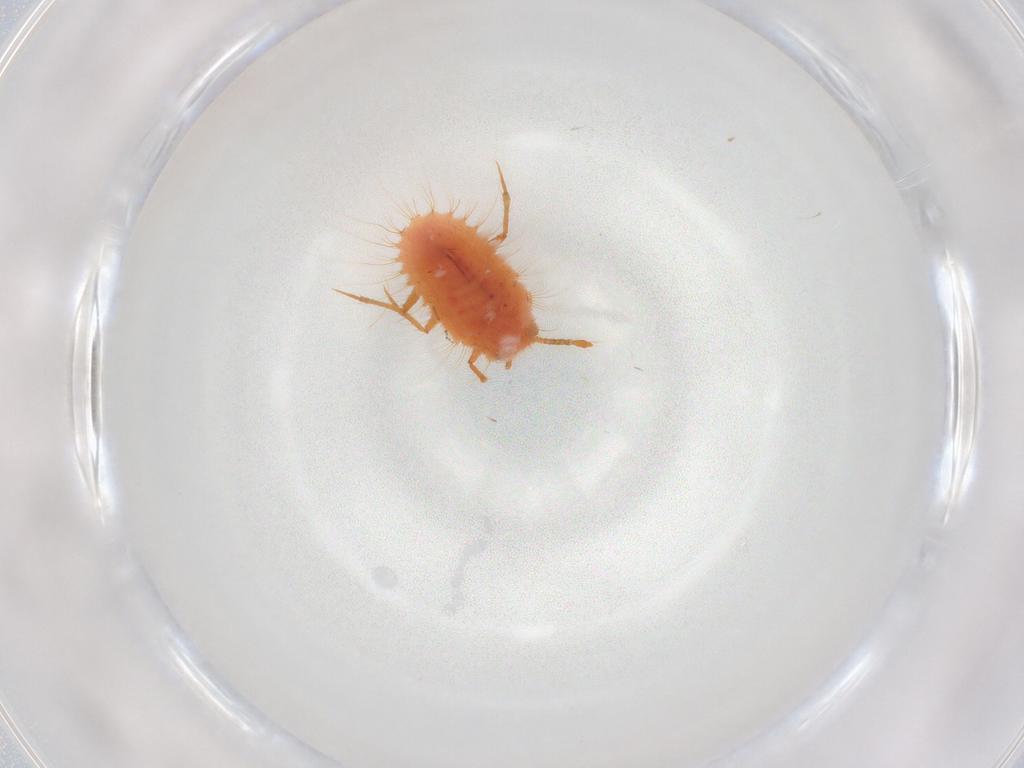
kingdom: Animalia
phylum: Arthropoda
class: Insecta
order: Hemiptera
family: Coccoidea_incertae_sedis
